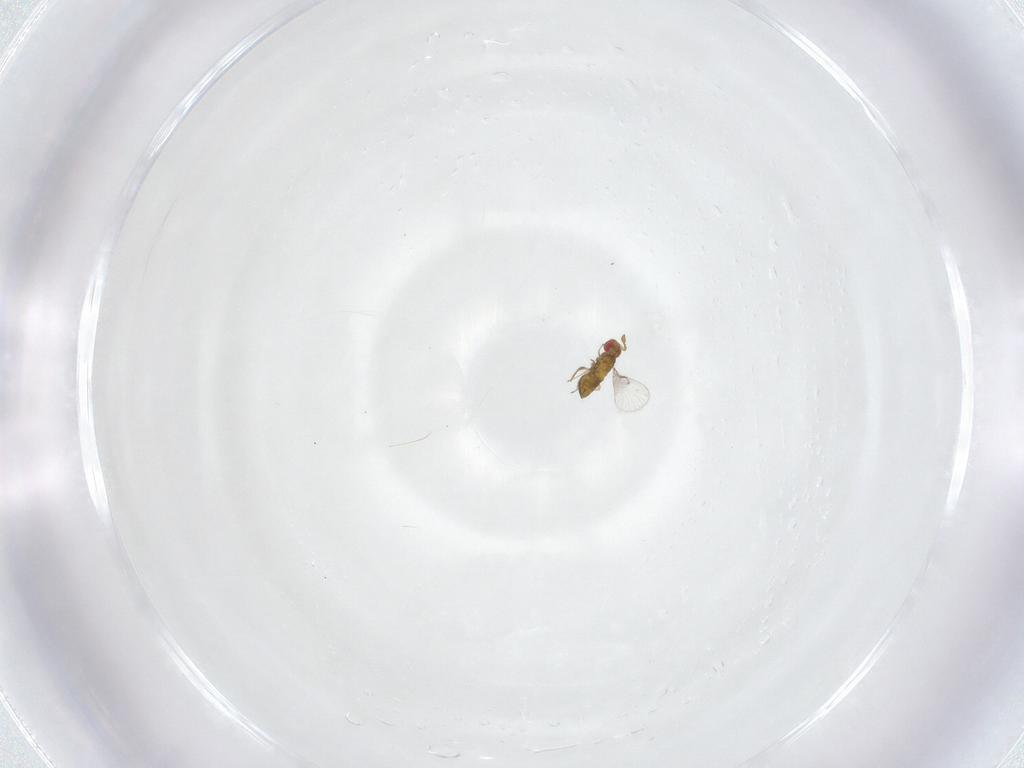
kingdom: Animalia
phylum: Arthropoda
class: Insecta
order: Hymenoptera
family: Trichogrammatidae
